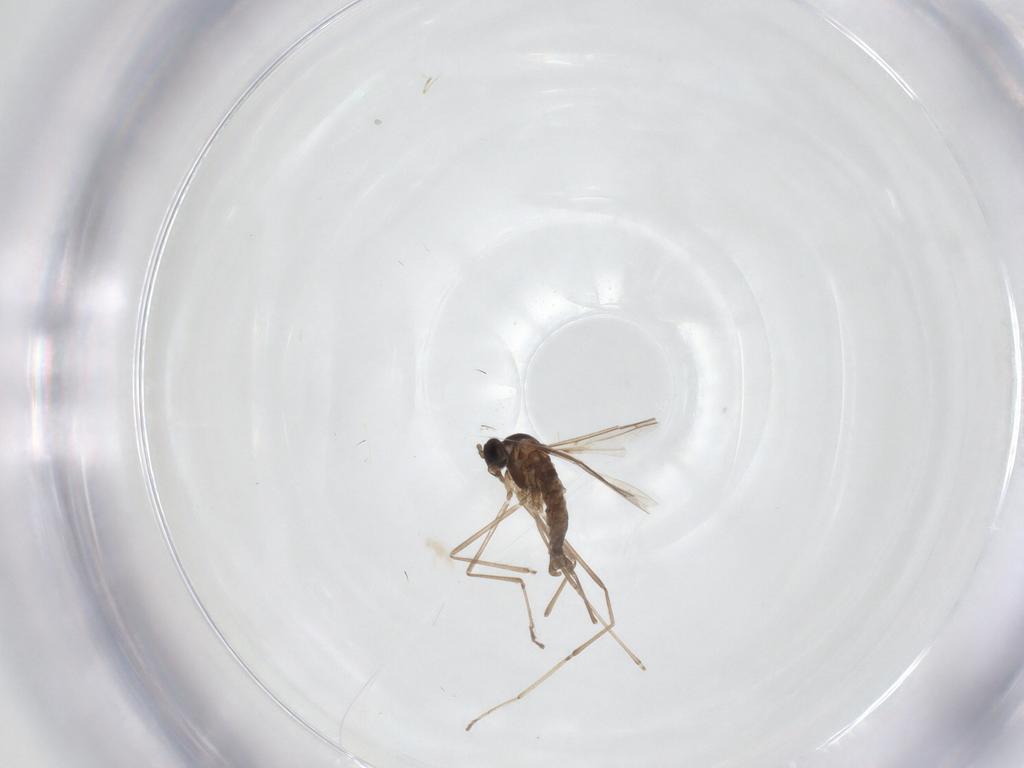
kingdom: Animalia
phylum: Arthropoda
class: Insecta
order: Diptera
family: Cecidomyiidae
